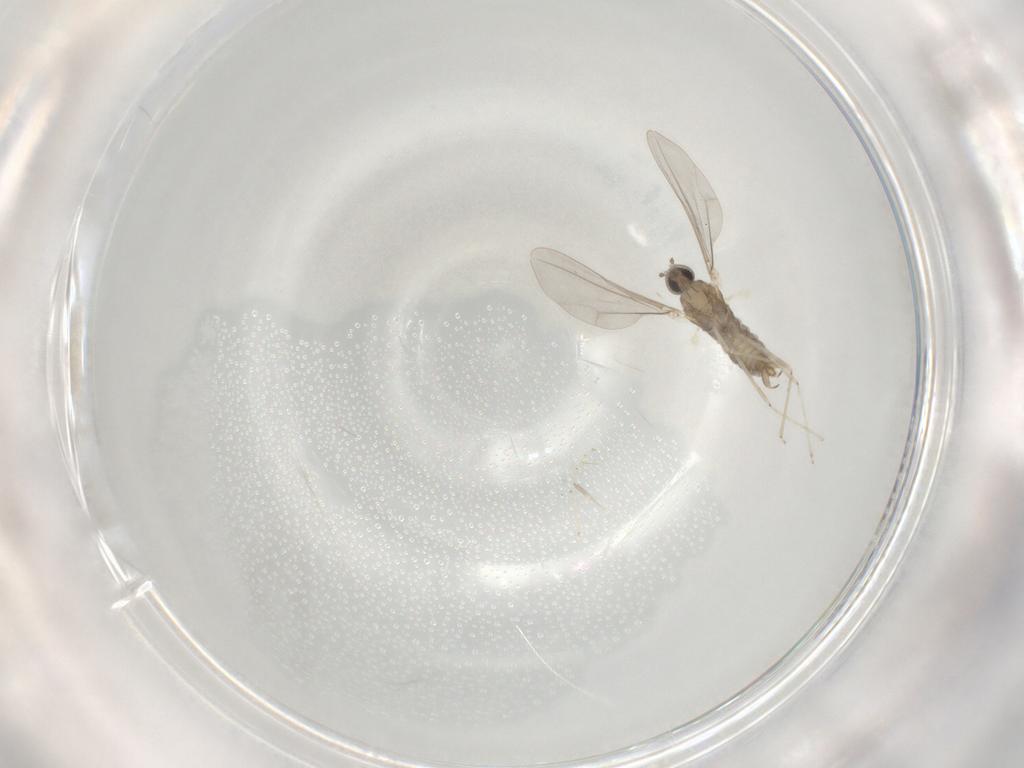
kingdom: Animalia
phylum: Arthropoda
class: Insecta
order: Diptera
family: Cecidomyiidae
